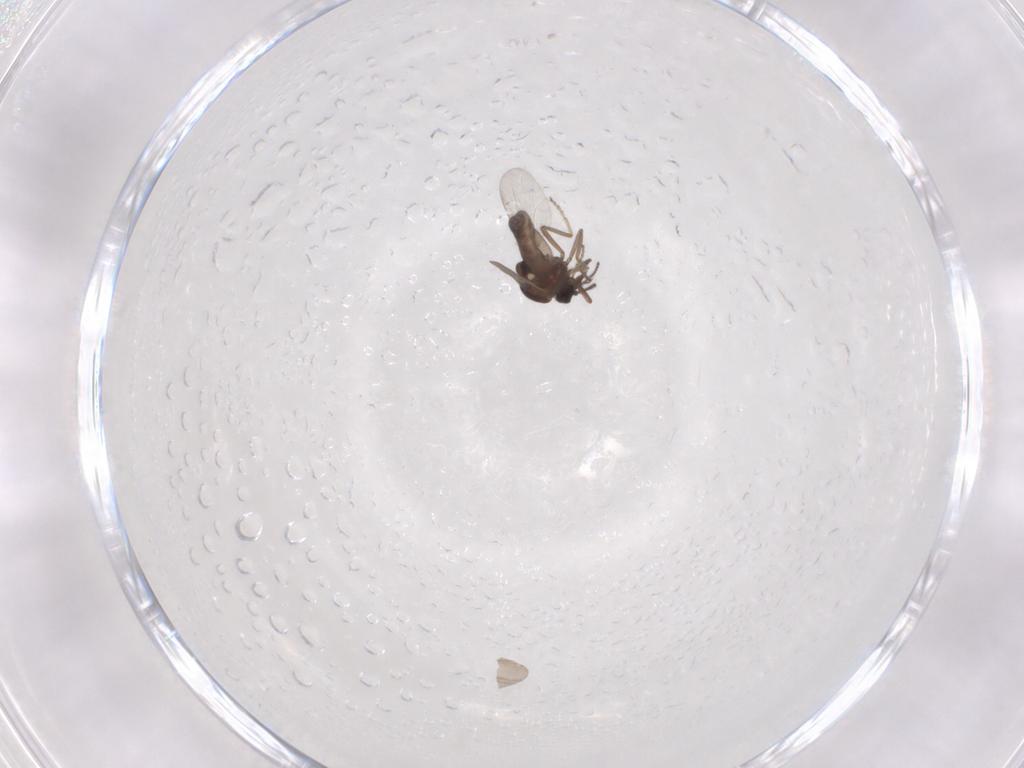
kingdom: Animalia
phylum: Arthropoda
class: Insecta
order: Diptera
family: Ceratopogonidae
